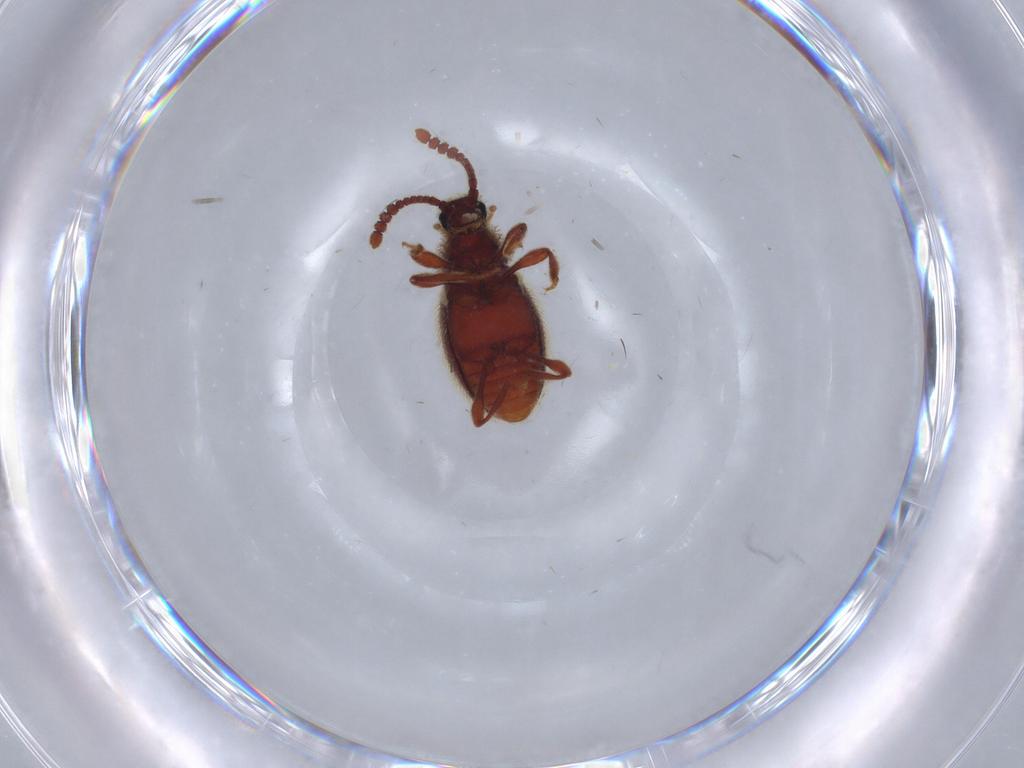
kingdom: Animalia
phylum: Arthropoda
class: Insecta
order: Coleoptera
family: Staphylinidae
